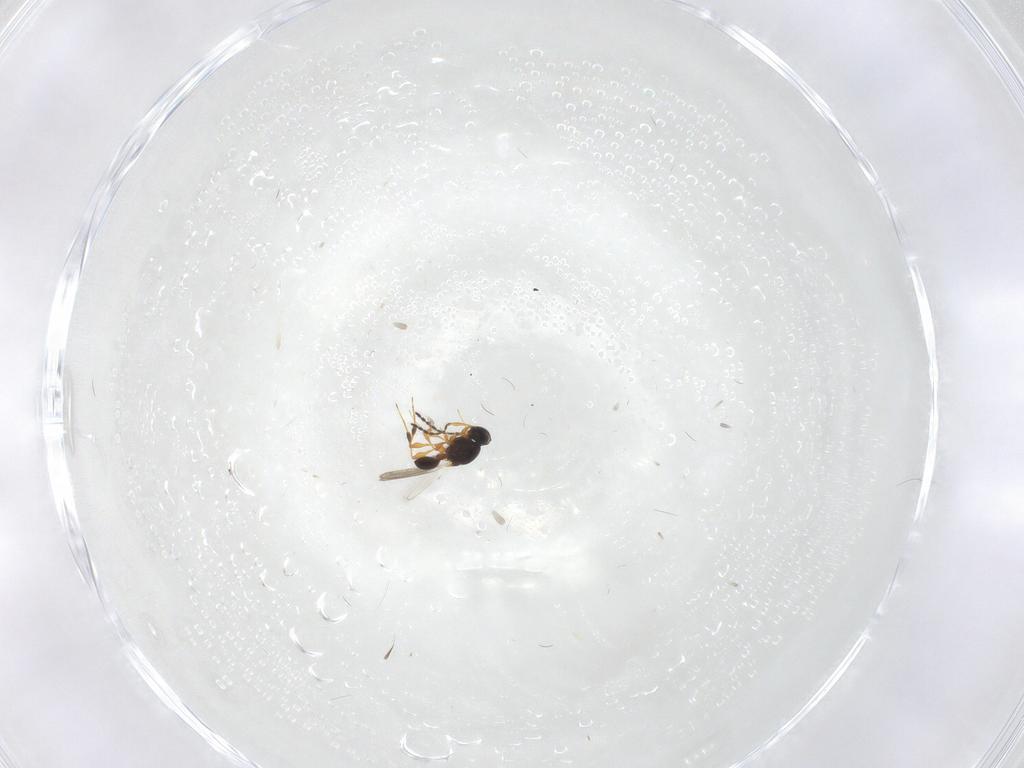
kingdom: Animalia
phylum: Arthropoda
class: Insecta
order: Hymenoptera
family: Platygastridae
